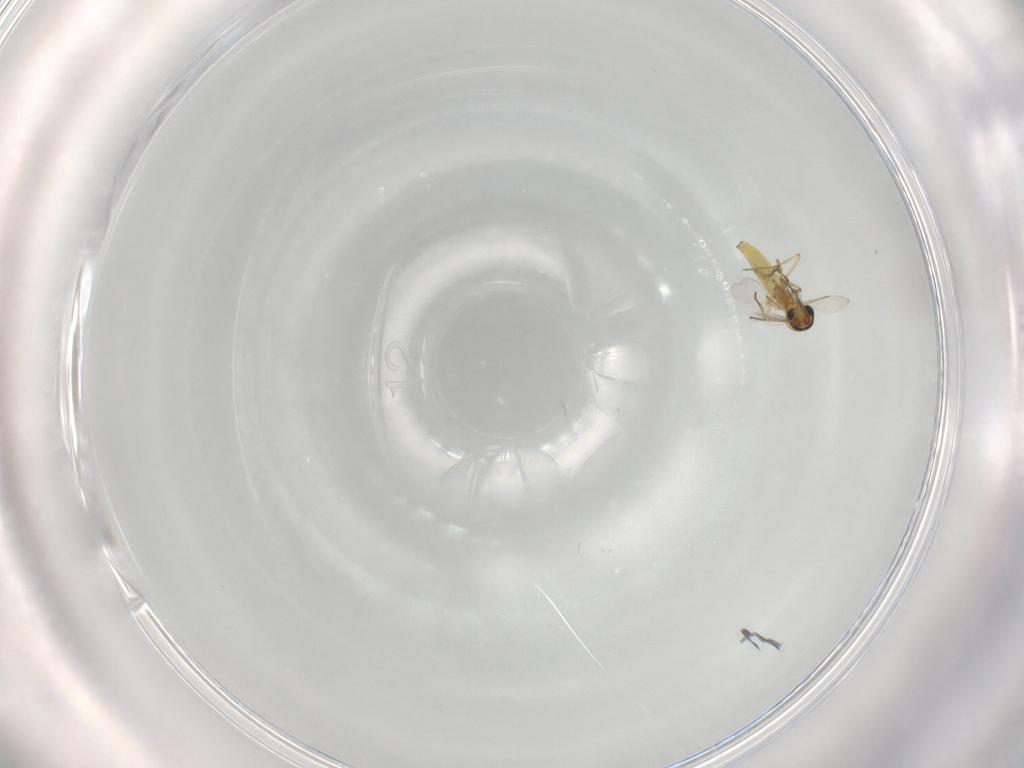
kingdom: Animalia
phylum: Arthropoda
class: Insecta
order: Diptera
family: Ceratopogonidae
